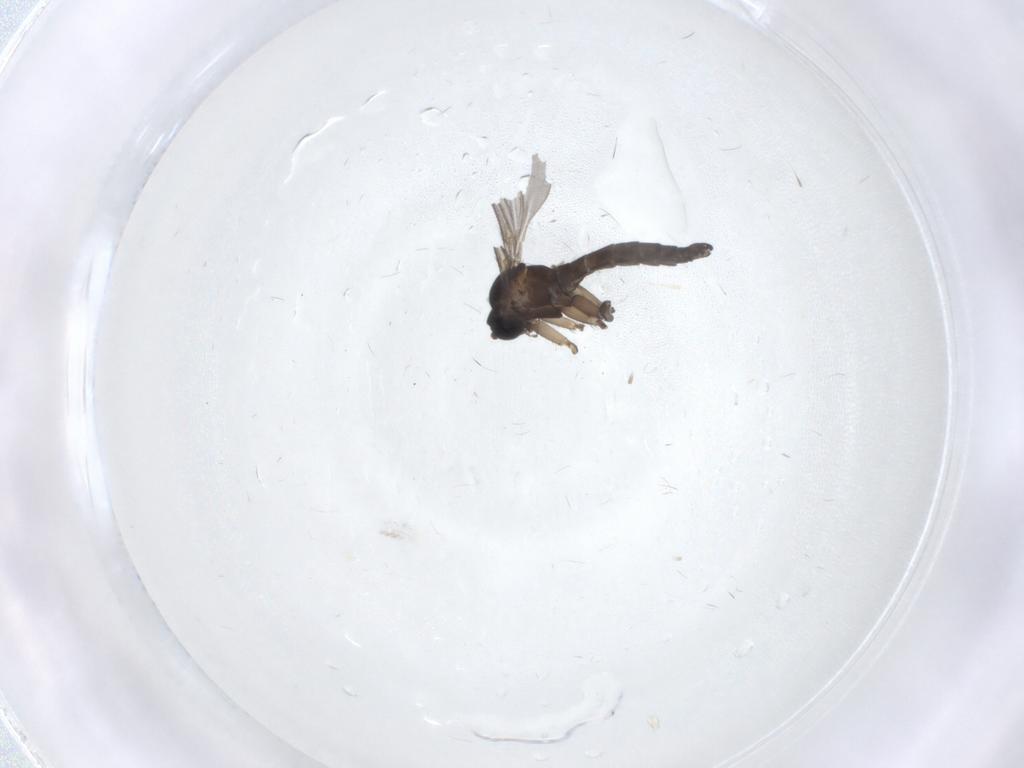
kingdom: Animalia
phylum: Arthropoda
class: Insecta
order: Diptera
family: Sciaridae
